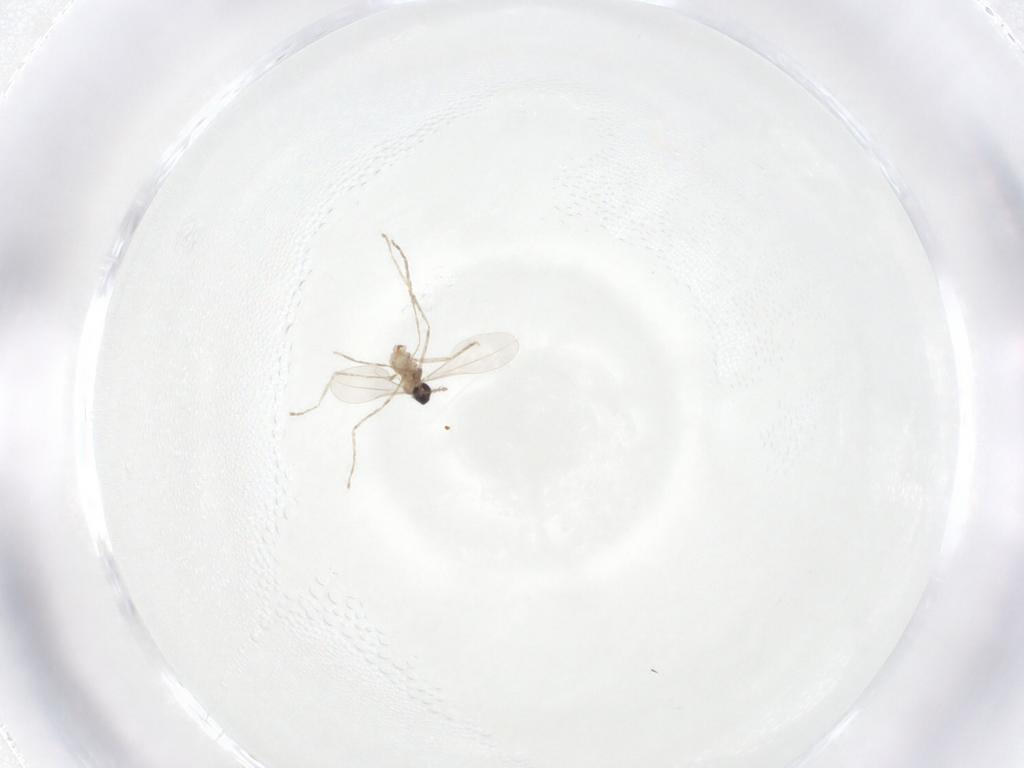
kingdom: Animalia
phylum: Arthropoda
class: Insecta
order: Diptera
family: Cecidomyiidae
